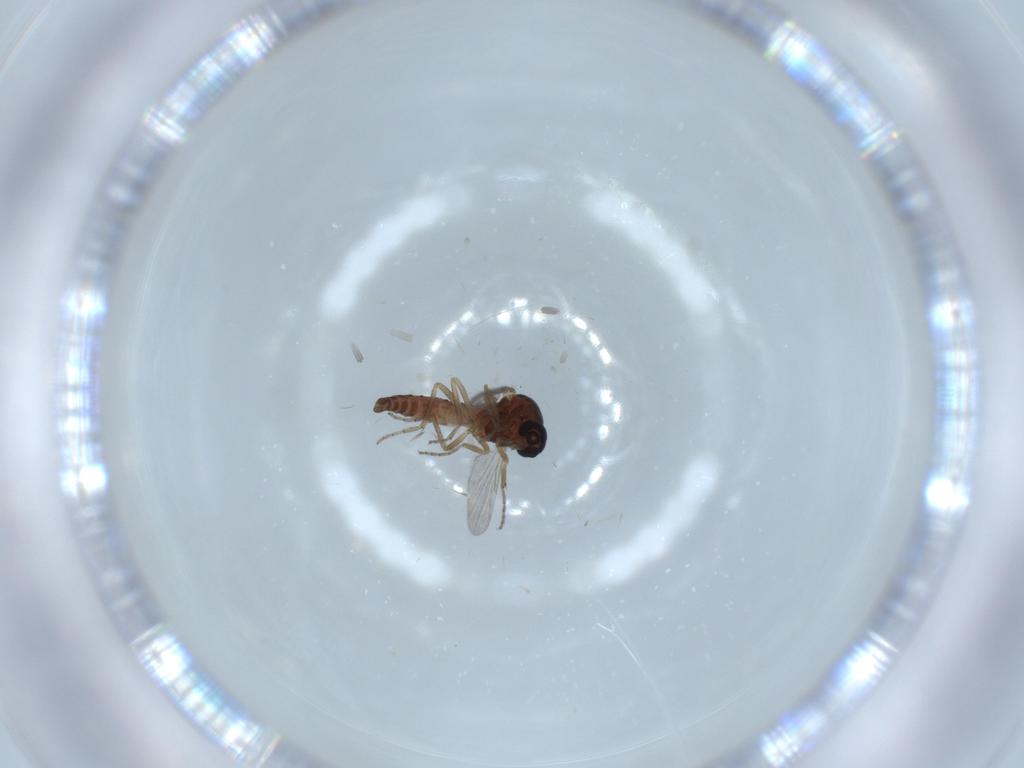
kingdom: Animalia
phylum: Arthropoda
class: Insecta
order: Diptera
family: Ceratopogonidae
